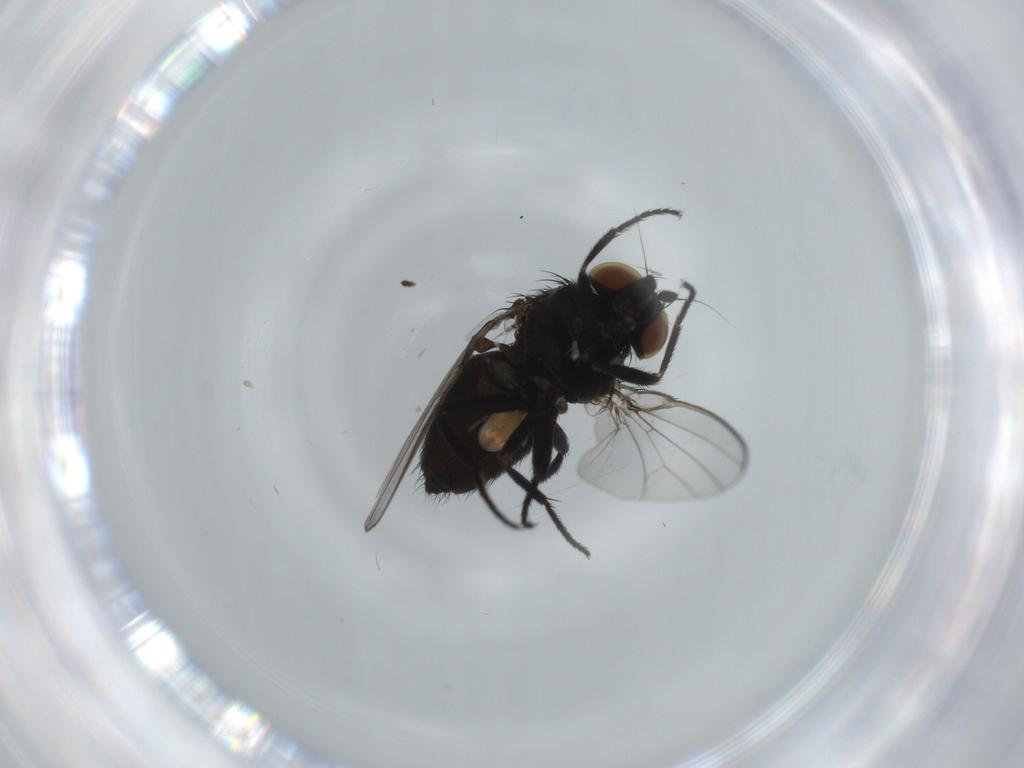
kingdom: Animalia
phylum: Arthropoda
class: Insecta
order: Diptera
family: Milichiidae
